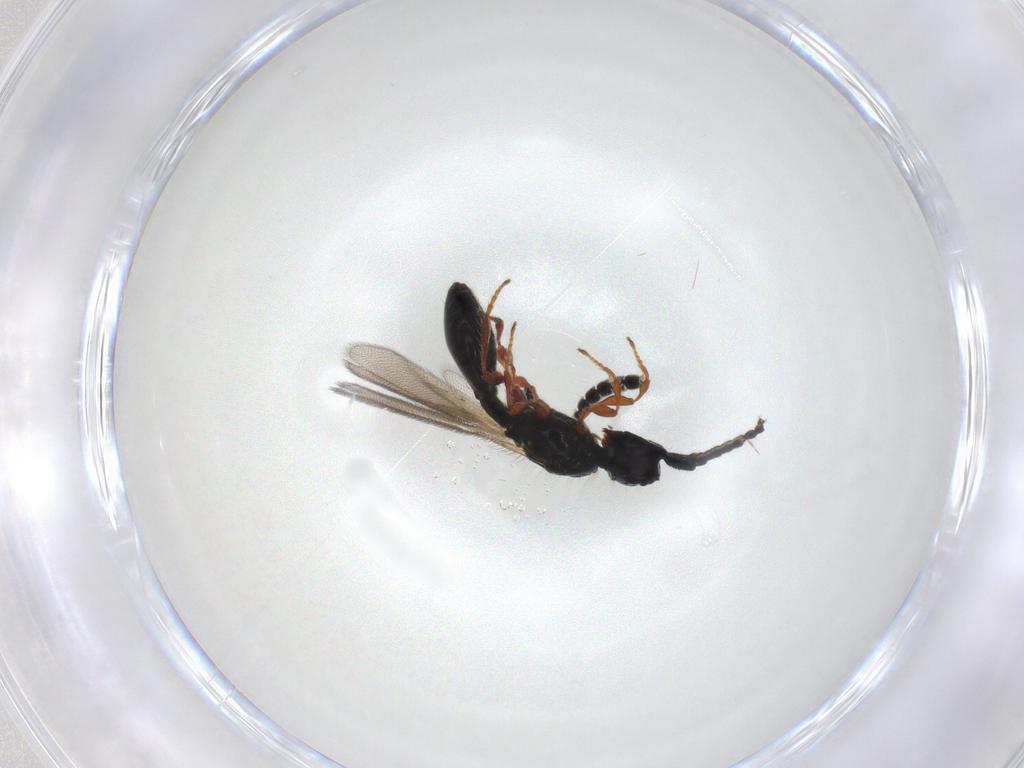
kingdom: Animalia
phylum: Arthropoda
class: Insecta
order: Hymenoptera
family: Diapriidae
